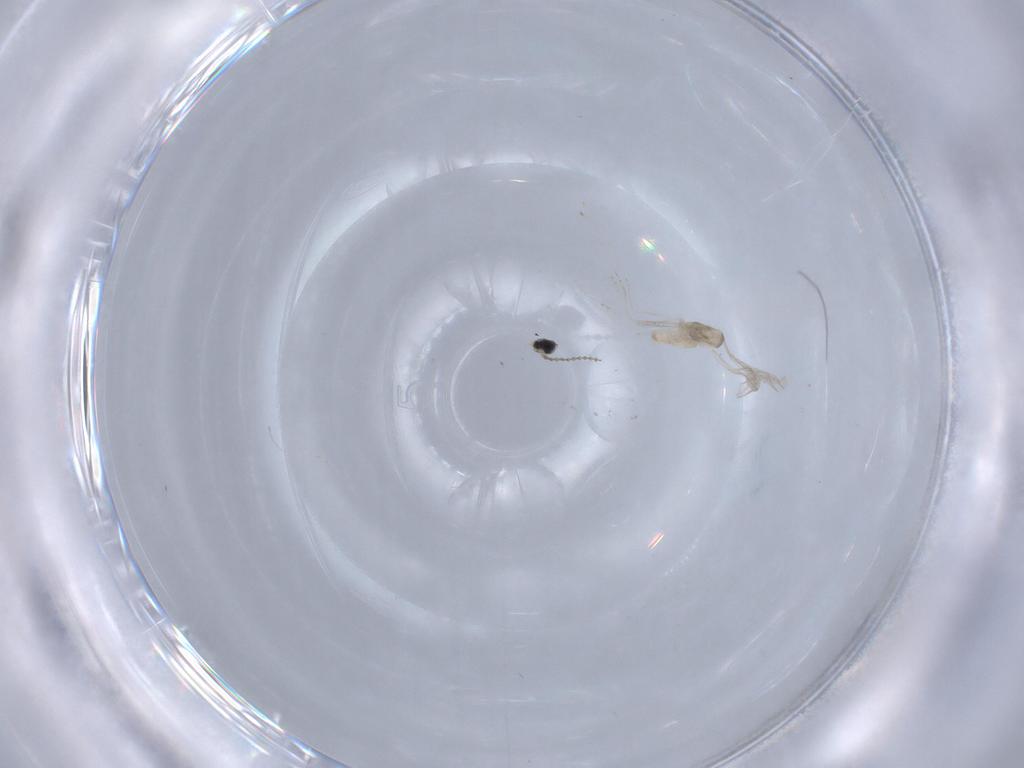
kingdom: Animalia
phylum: Arthropoda
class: Insecta
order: Diptera
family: Cecidomyiidae
